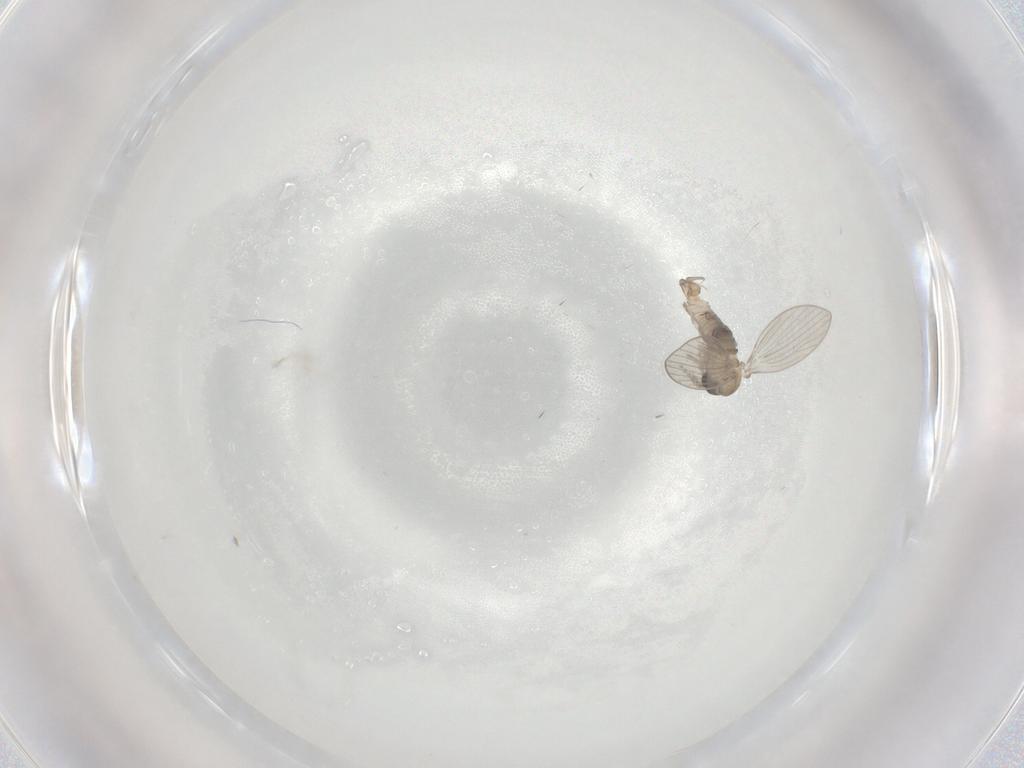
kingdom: Animalia
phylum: Arthropoda
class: Insecta
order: Diptera
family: Psychodidae
